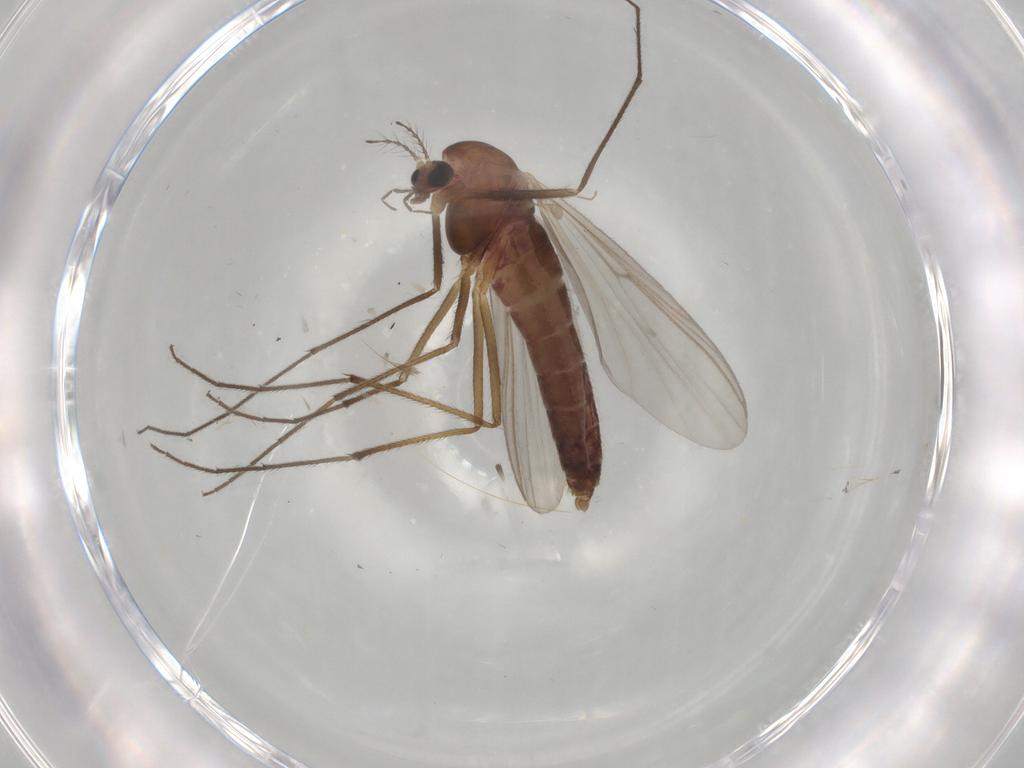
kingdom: Animalia
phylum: Arthropoda
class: Insecta
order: Diptera
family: Chironomidae
